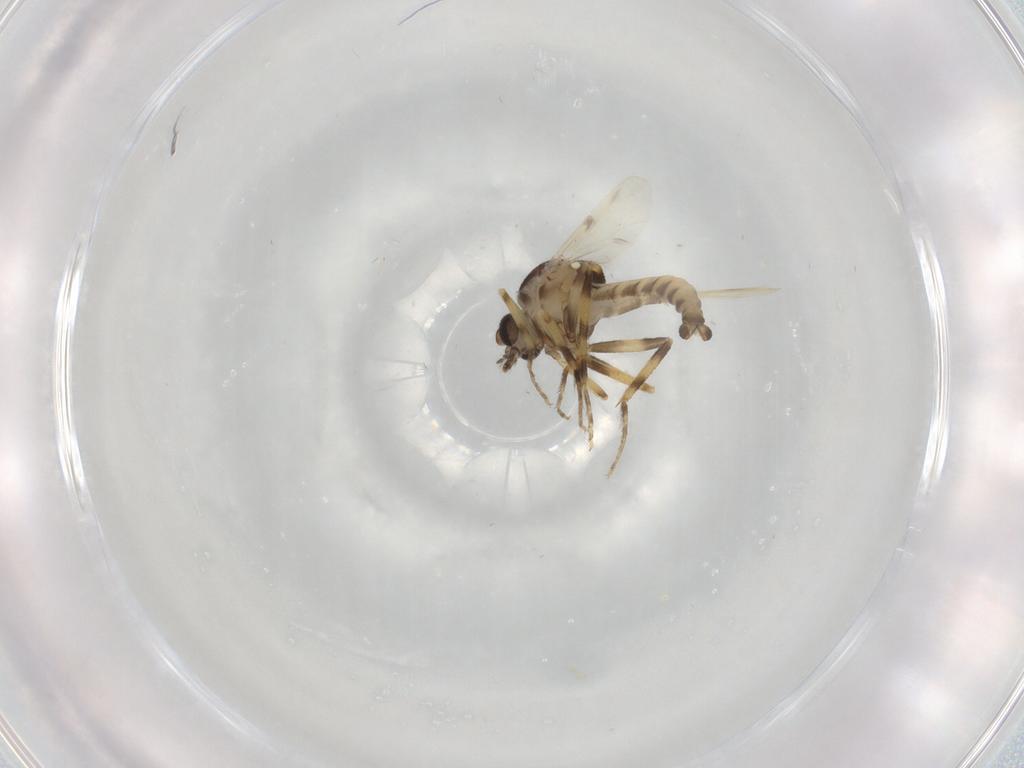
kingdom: Animalia
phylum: Arthropoda
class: Insecta
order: Diptera
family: Ceratopogonidae
